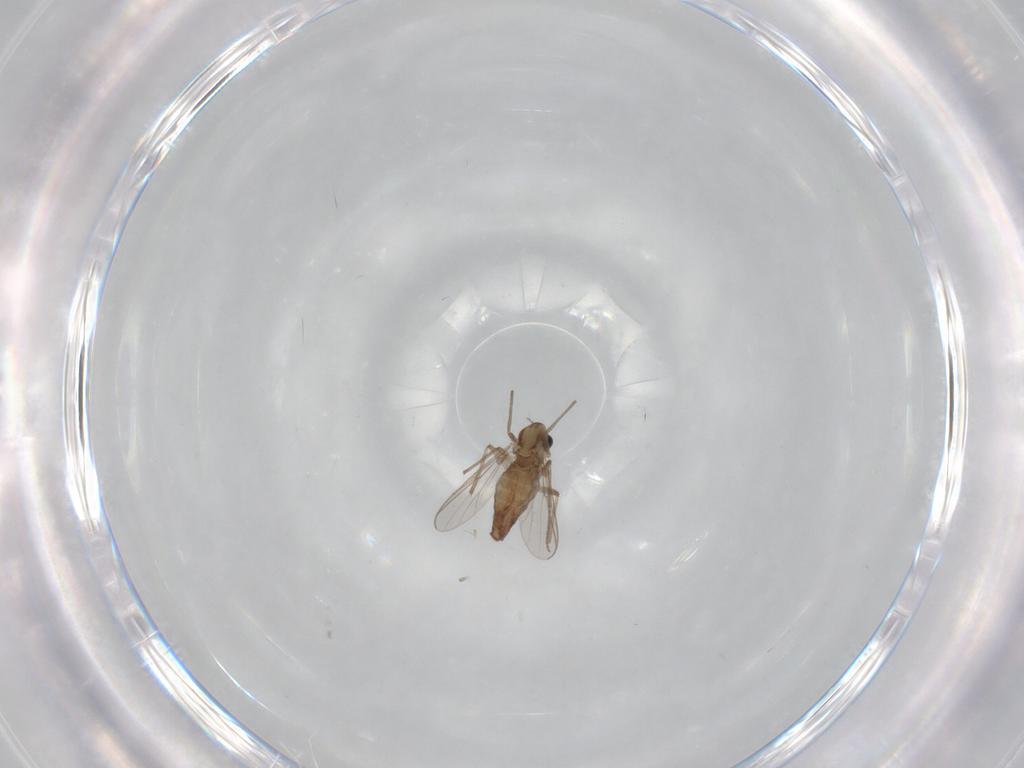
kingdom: Animalia
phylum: Arthropoda
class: Insecta
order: Diptera
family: Chironomidae
